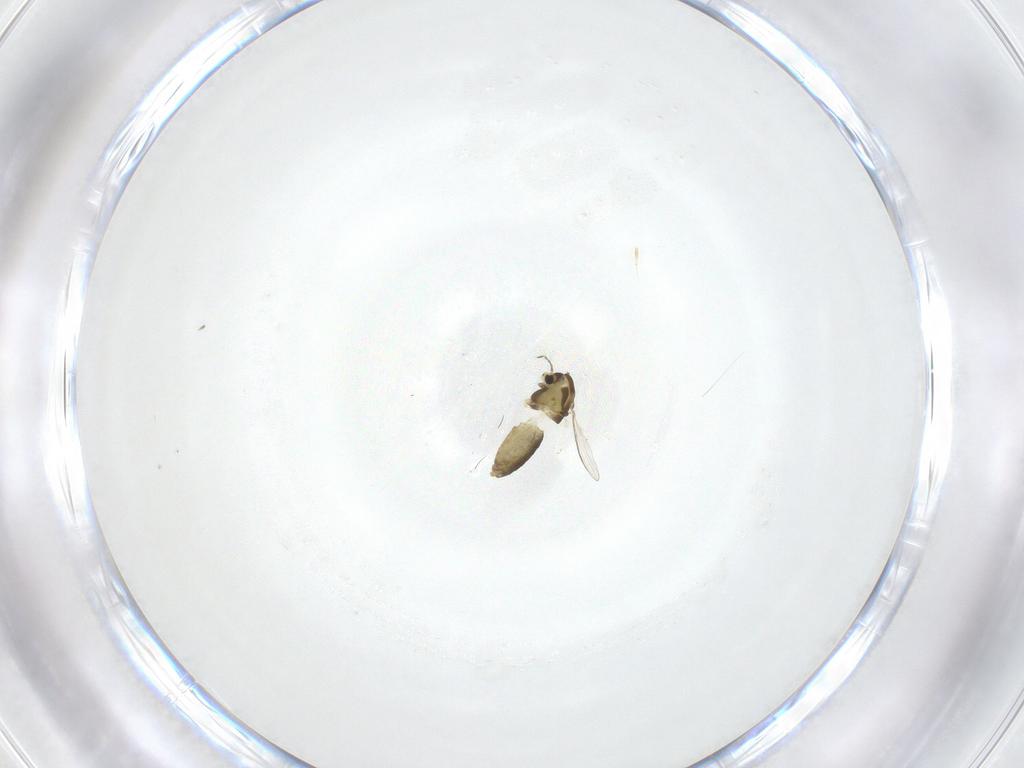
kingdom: Animalia
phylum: Arthropoda
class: Insecta
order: Diptera
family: Chironomidae
